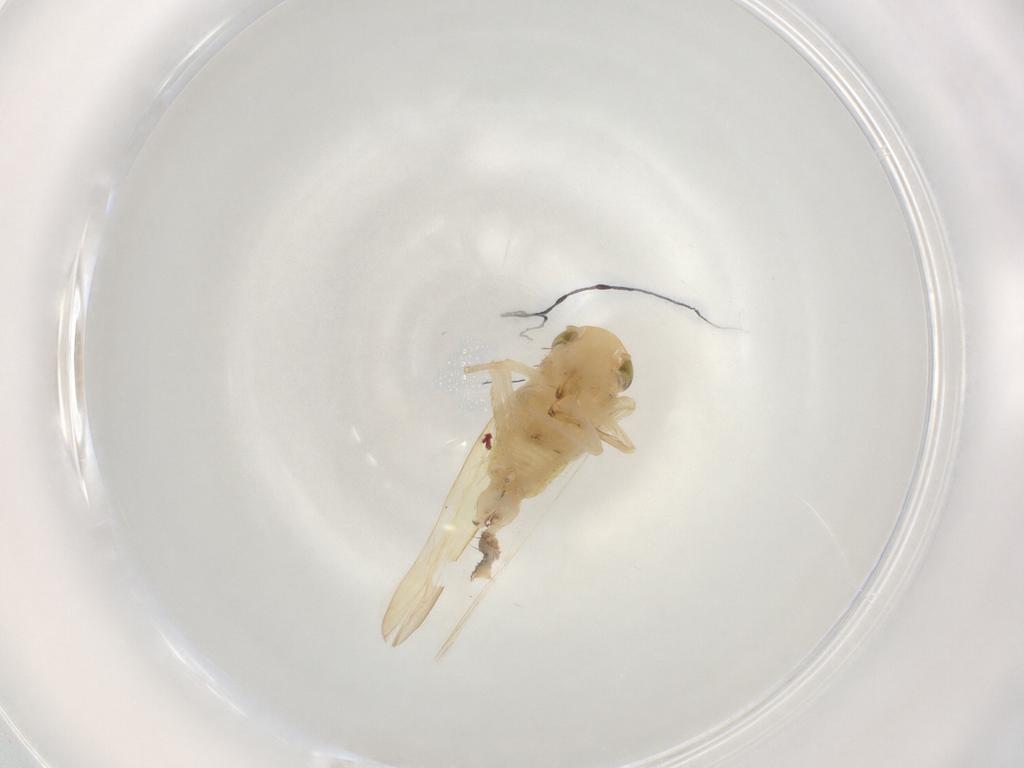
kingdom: Animalia
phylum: Arthropoda
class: Insecta
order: Hemiptera
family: Cicadellidae
